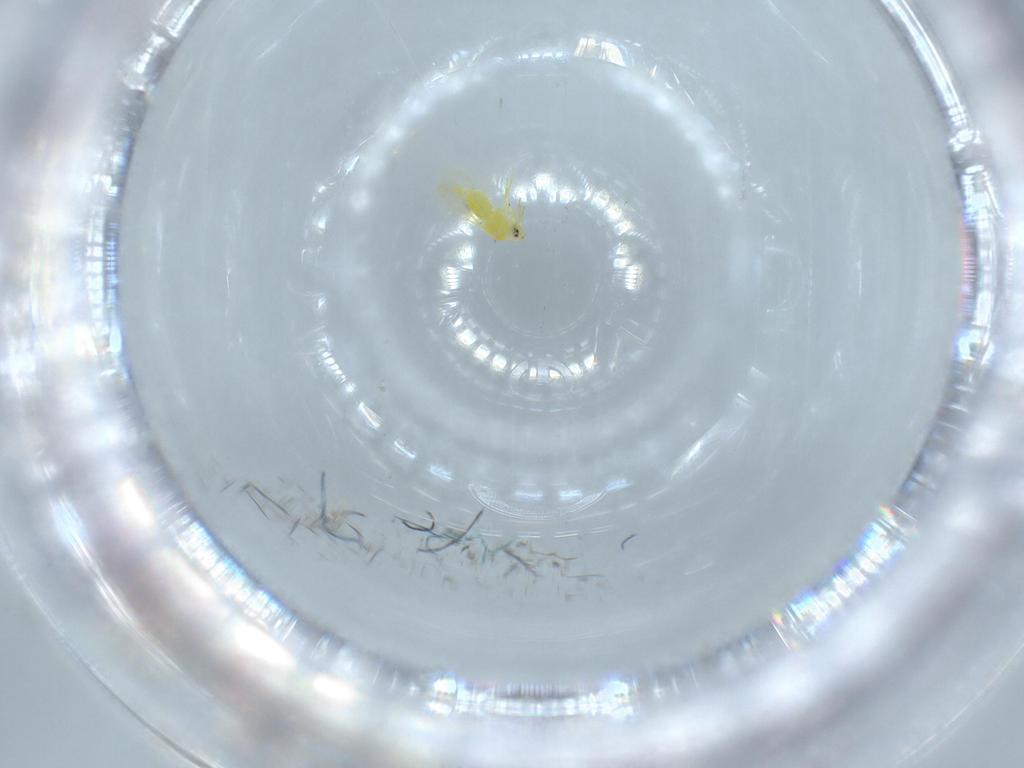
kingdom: Animalia
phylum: Arthropoda
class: Insecta
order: Hemiptera
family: Aleyrodidae
